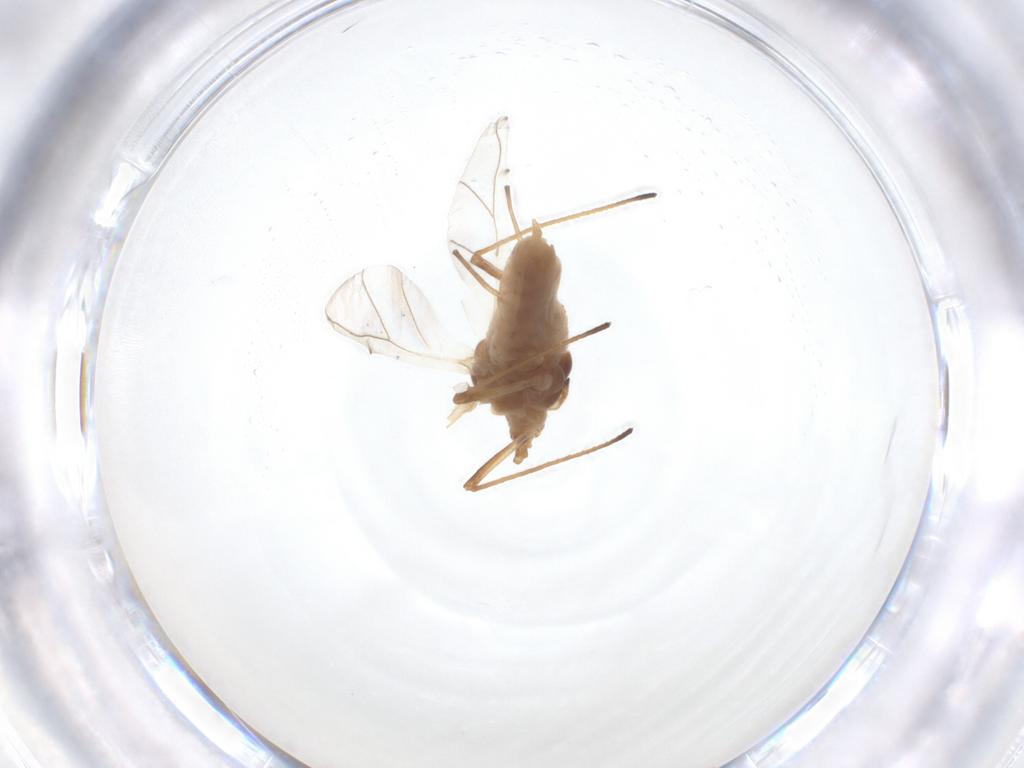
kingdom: Animalia
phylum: Arthropoda
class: Insecta
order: Hemiptera
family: Aphididae
